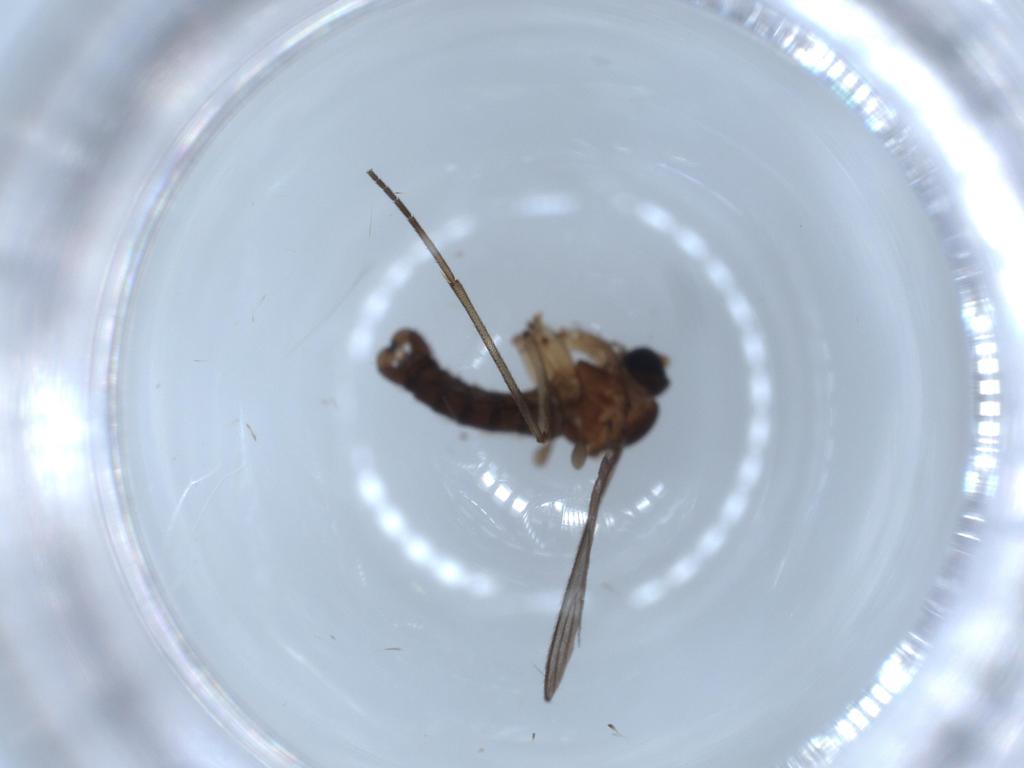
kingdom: Animalia
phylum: Arthropoda
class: Insecta
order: Diptera
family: Sciaridae
